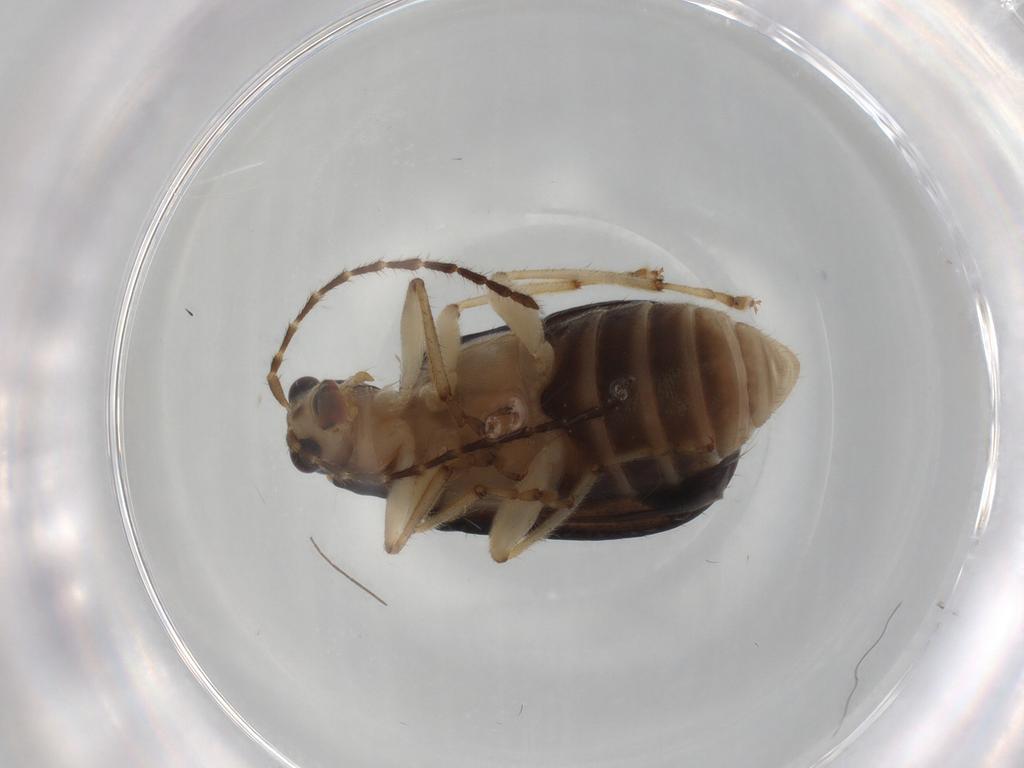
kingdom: Animalia
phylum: Arthropoda
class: Insecta
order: Coleoptera
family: Chrysomelidae
